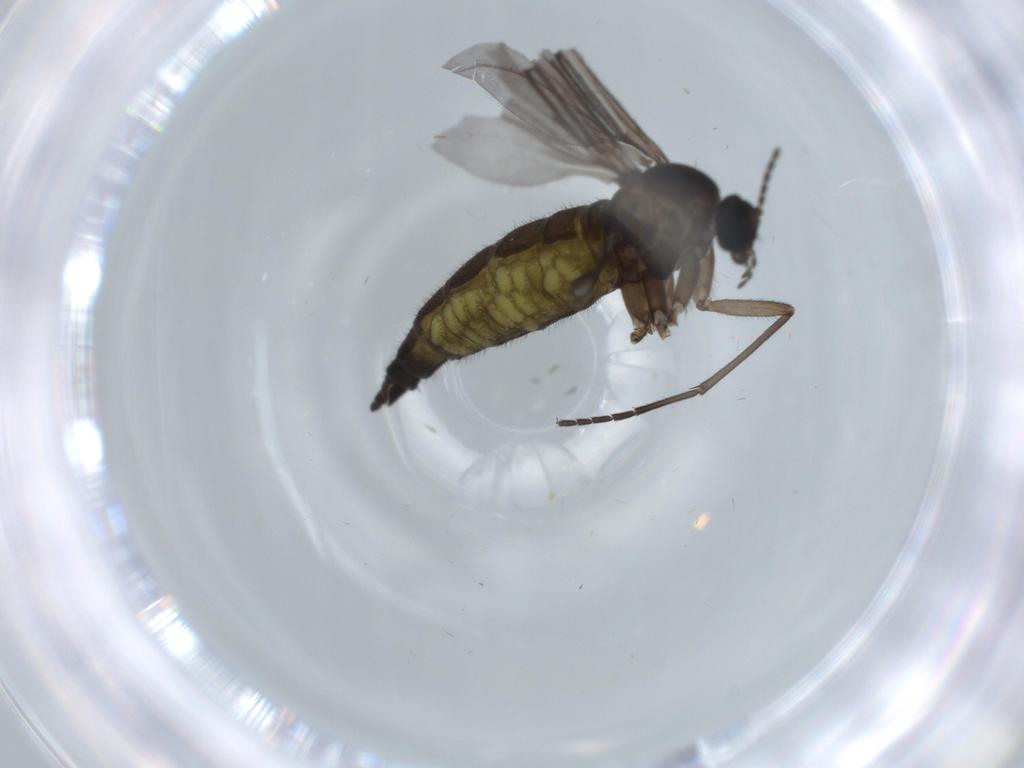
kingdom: Animalia
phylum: Arthropoda
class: Insecta
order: Diptera
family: Sciaridae
